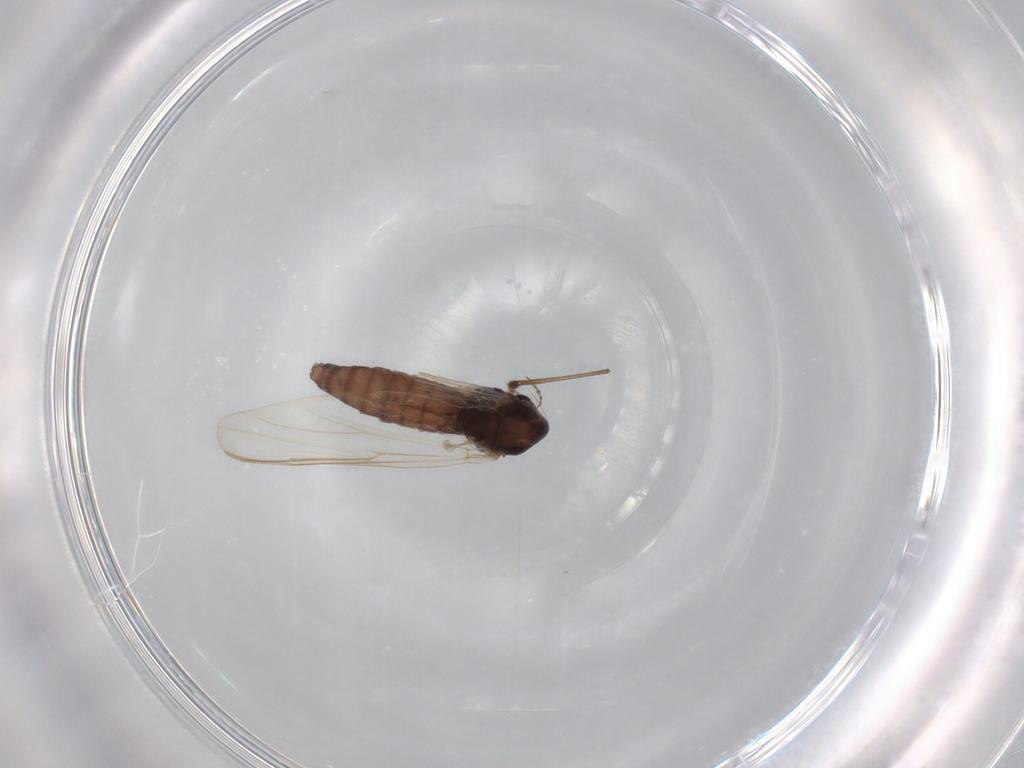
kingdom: Animalia
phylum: Arthropoda
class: Insecta
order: Diptera
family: Chironomidae
